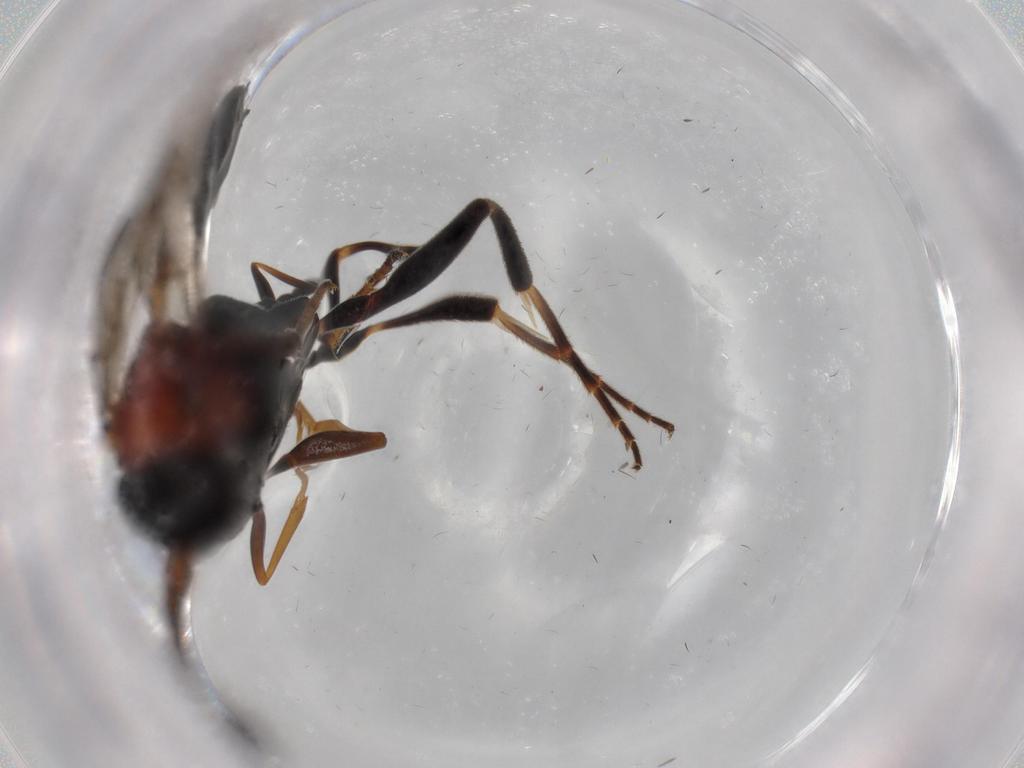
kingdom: Animalia
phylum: Arthropoda
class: Insecta
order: Hymenoptera
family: Evaniidae
